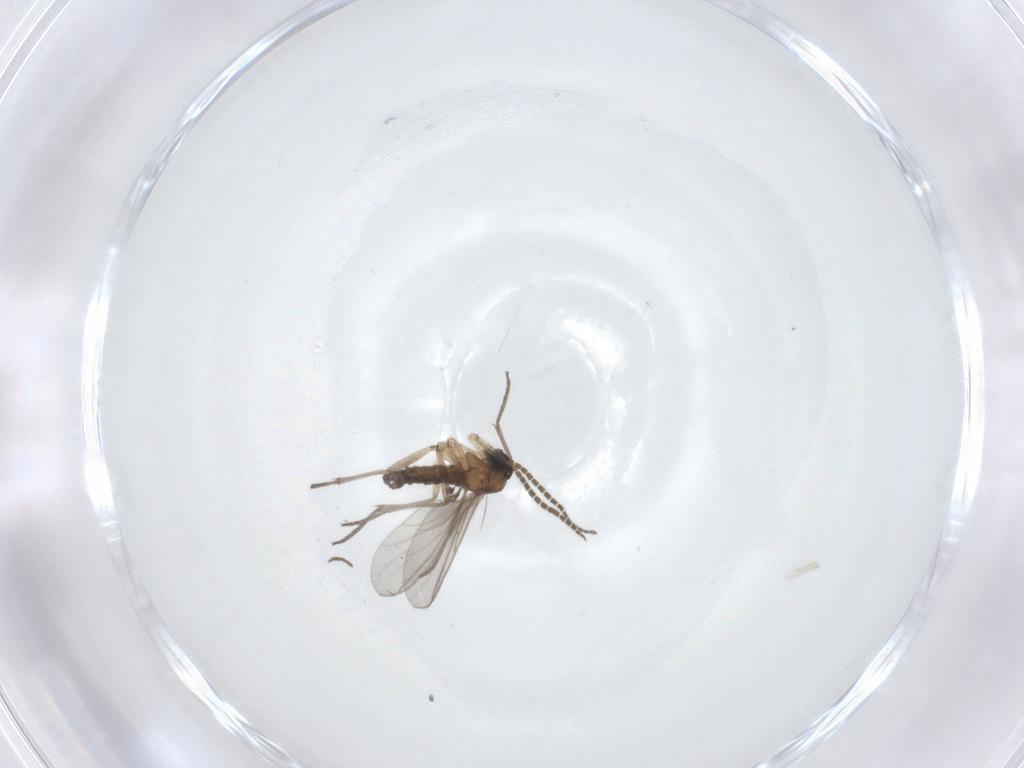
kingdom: Animalia
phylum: Arthropoda
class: Insecta
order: Diptera
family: Sciaridae
